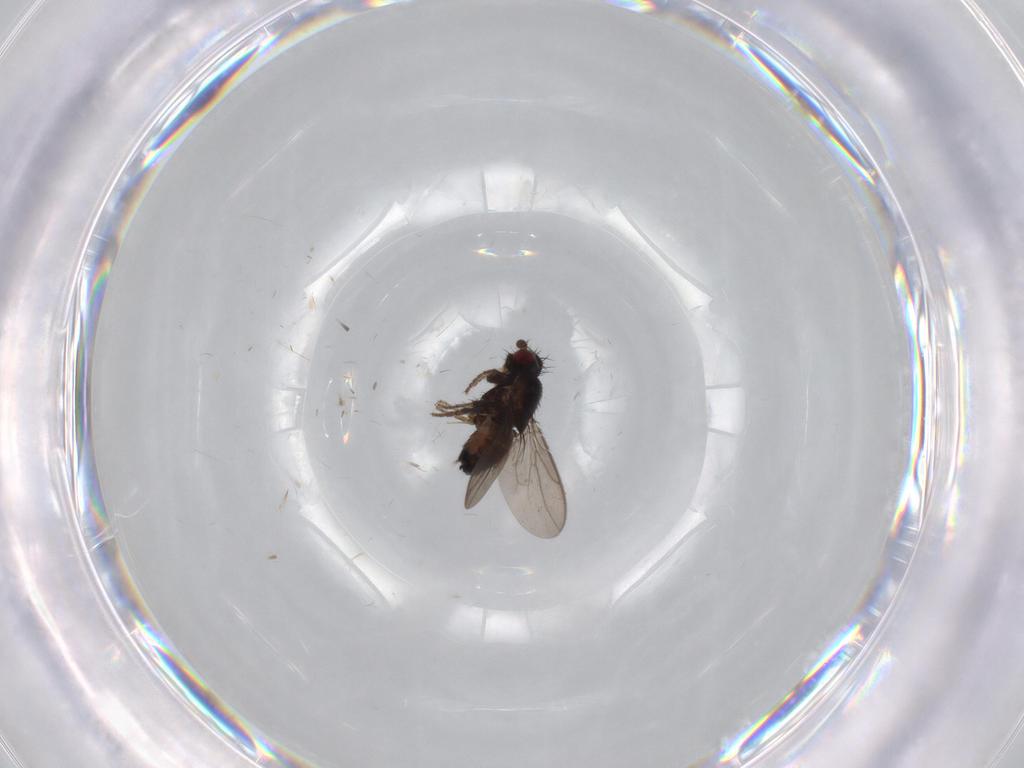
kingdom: Animalia
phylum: Arthropoda
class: Insecta
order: Diptera
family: Sphaeroceridae
